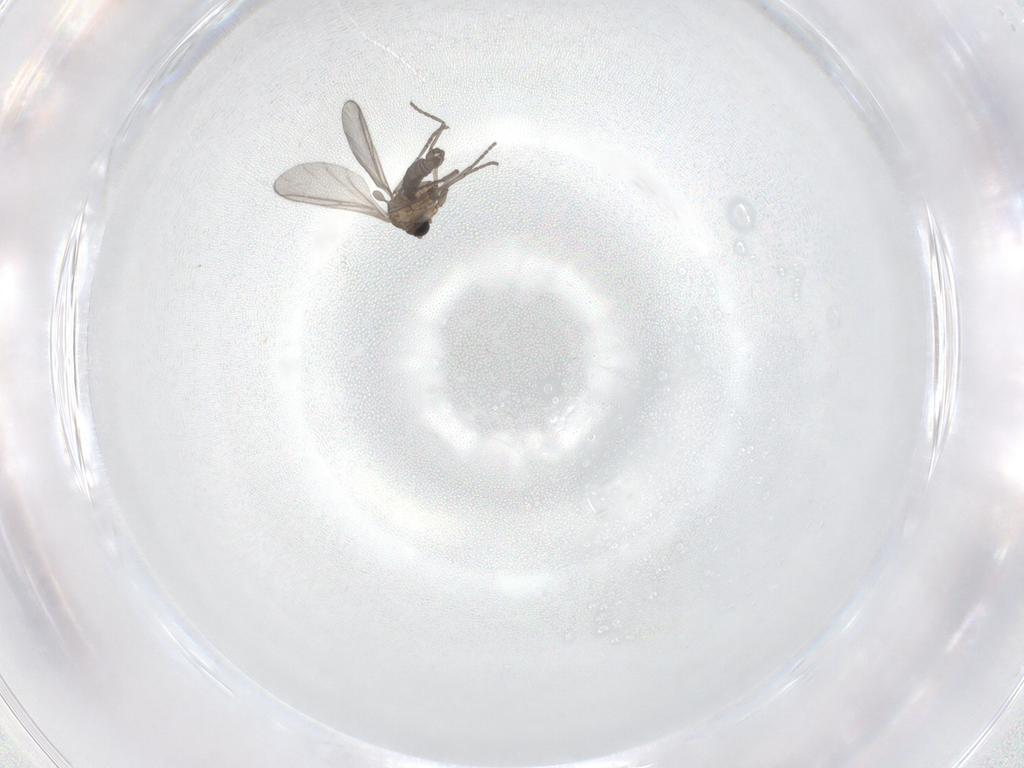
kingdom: Animalia
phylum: Arthropoda
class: Insecta
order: Diptera
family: Sciaridae
